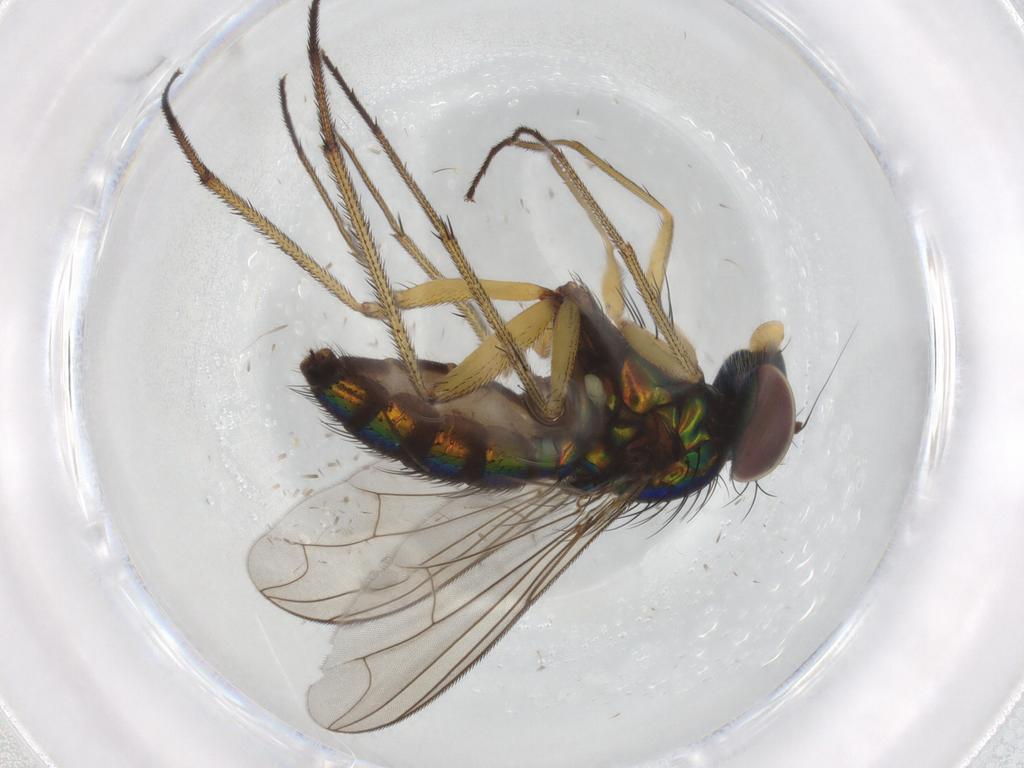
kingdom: Animalia
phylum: Arthropoda
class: Insecta
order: Diptera
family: Dolichopodidae
